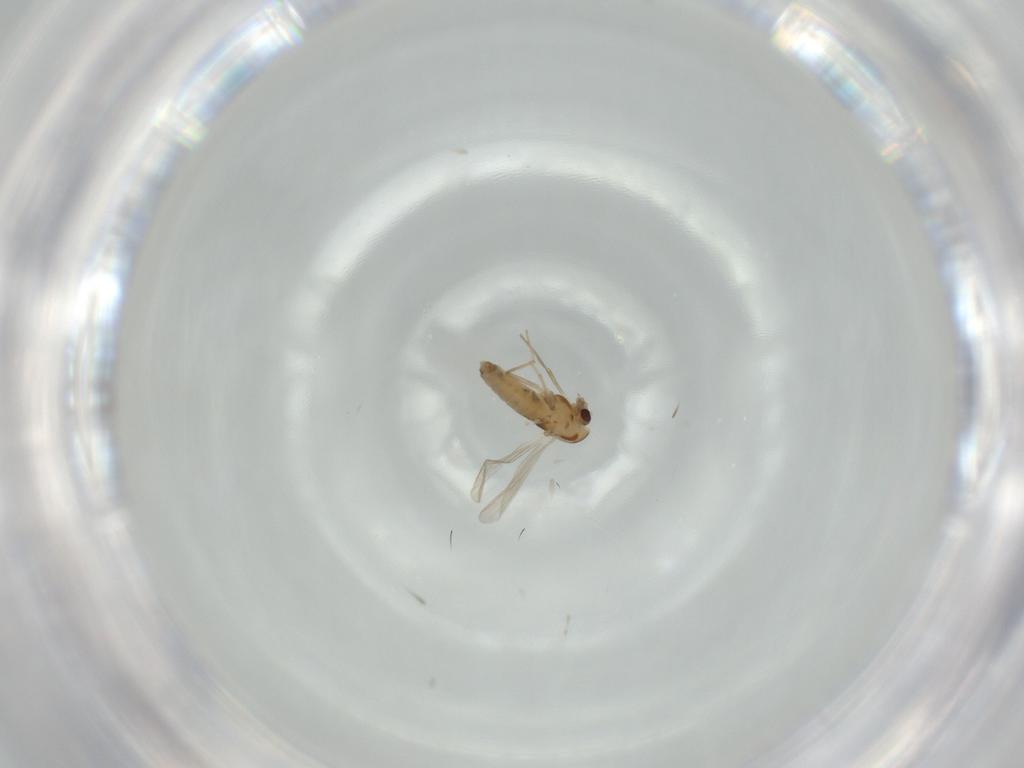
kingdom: Animalia
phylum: Arthropoda
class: Insecta
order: Diptera
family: Chironomidae
